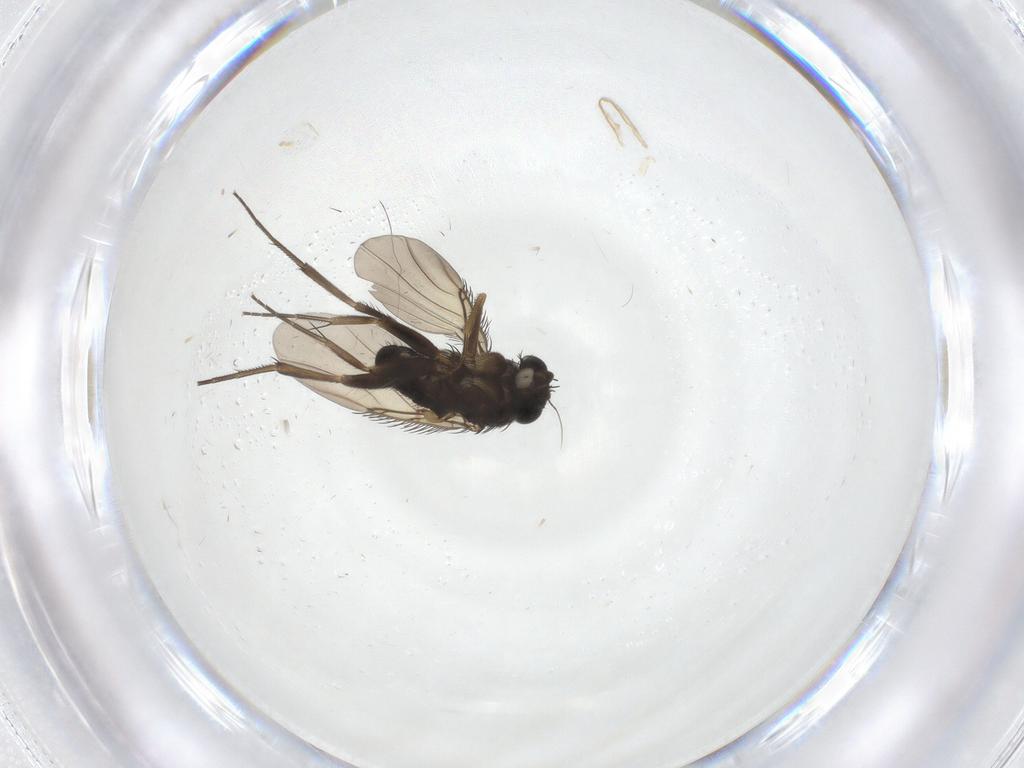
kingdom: Animalia
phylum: Arthropoda
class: Insecta
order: Diptera
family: Phoridae
